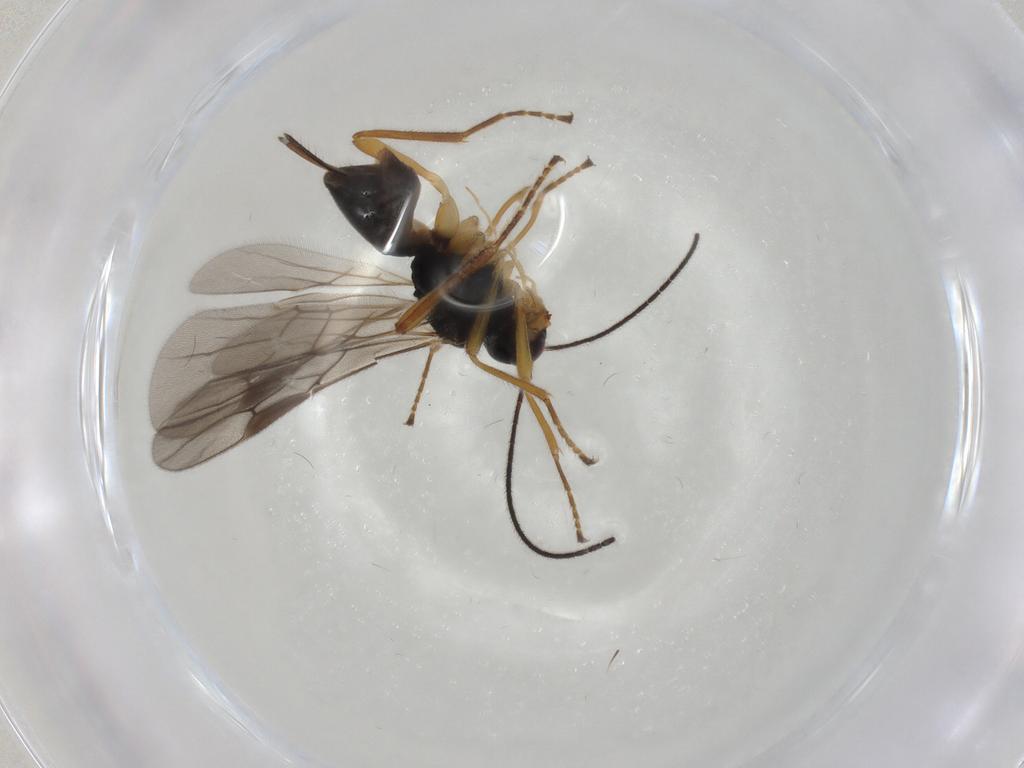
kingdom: Animalia
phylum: Arthropoda
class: Insecta
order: Hymenoptera
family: Braconidae
